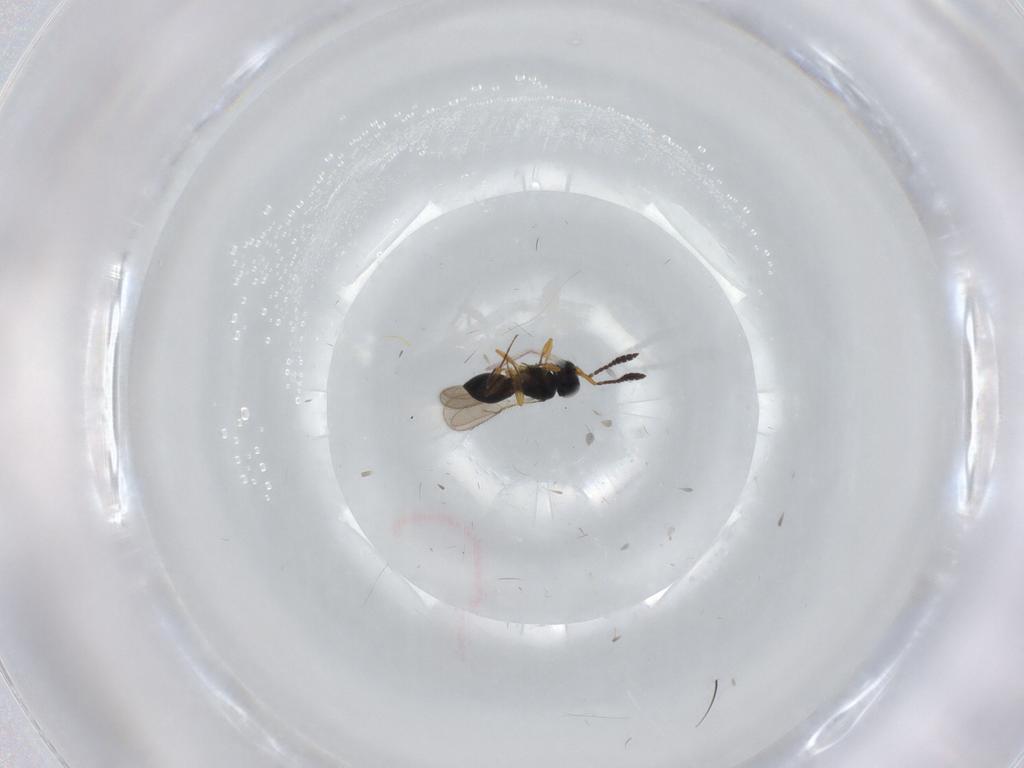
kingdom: Animalia
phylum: Arthropoda
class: Insecta
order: Hymenoptera
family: Scelionidae
